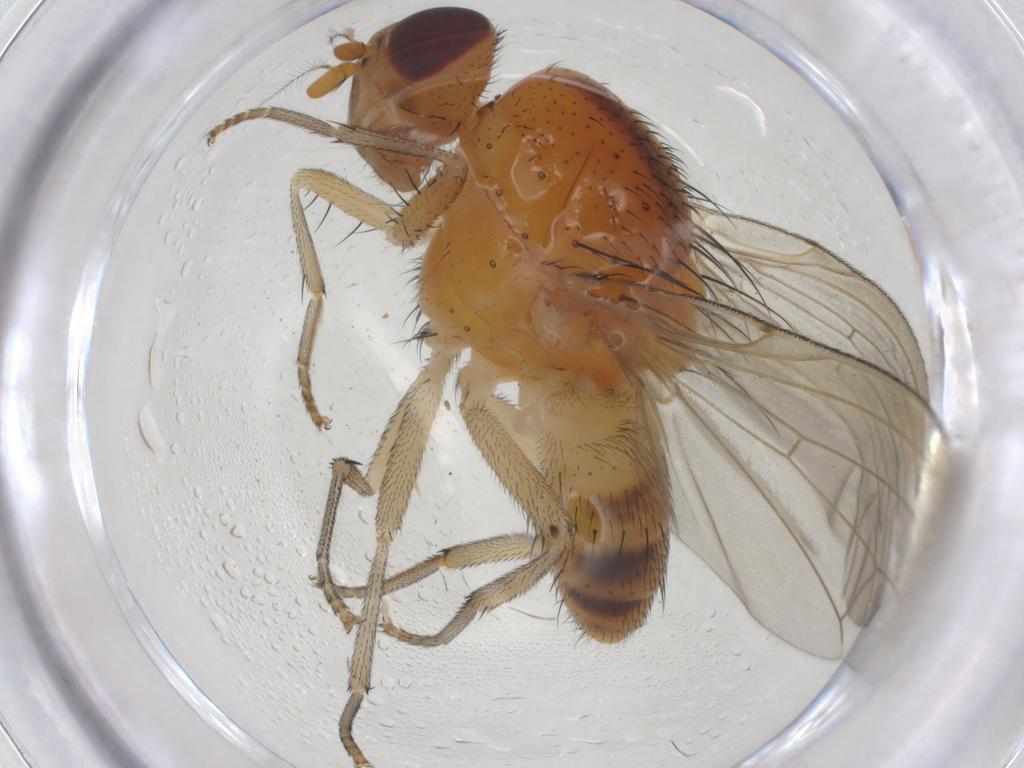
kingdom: Animalia
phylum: Arthropoda
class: Insecta
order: Diptera
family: Lauxaniidae
